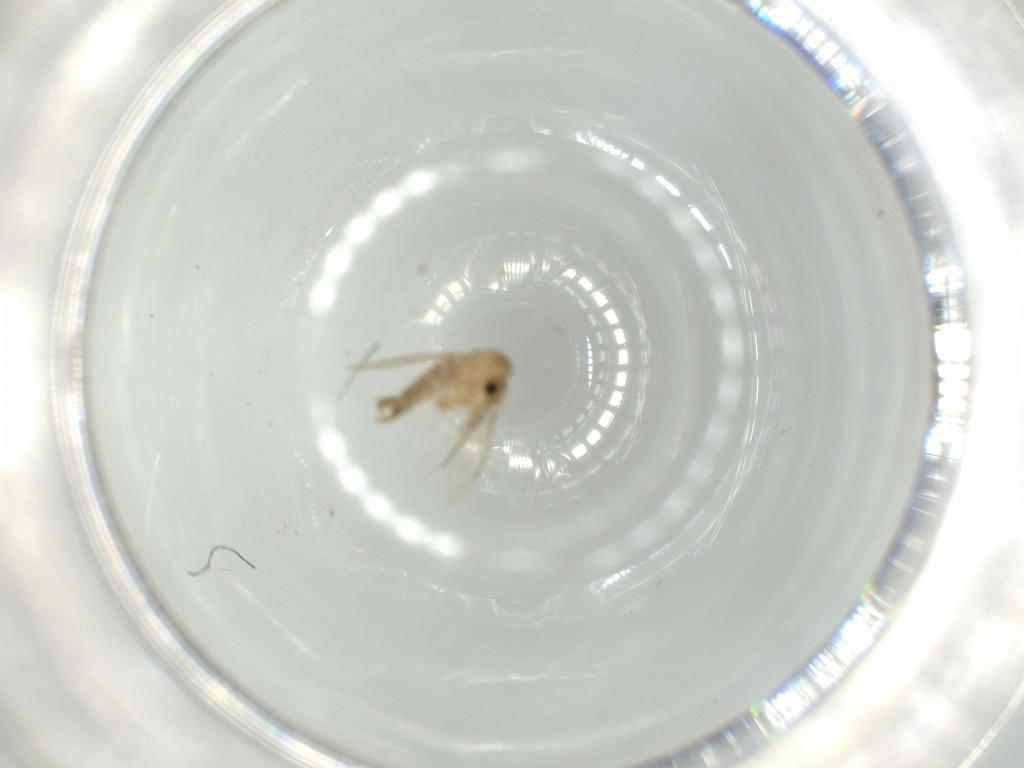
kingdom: Animalia
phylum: Arthropoda
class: Insecta
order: Diptera
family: Psychodidae
